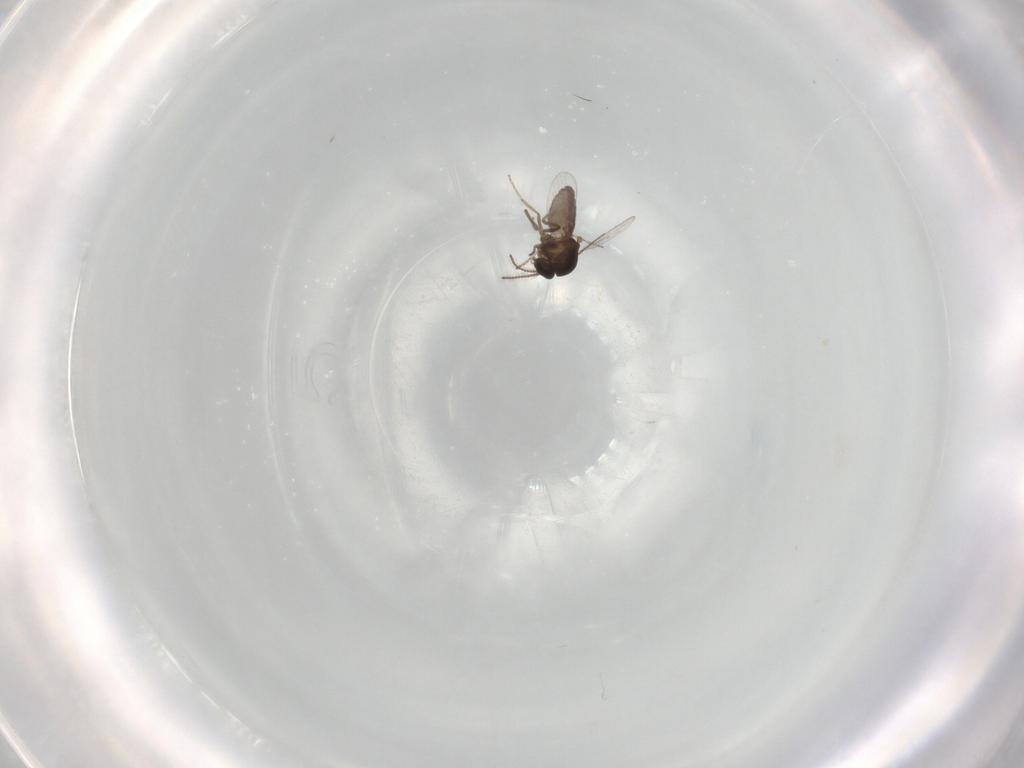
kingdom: Animalia
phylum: Arthropoda
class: Insecta
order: Diptera
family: Ceratopogonidae
